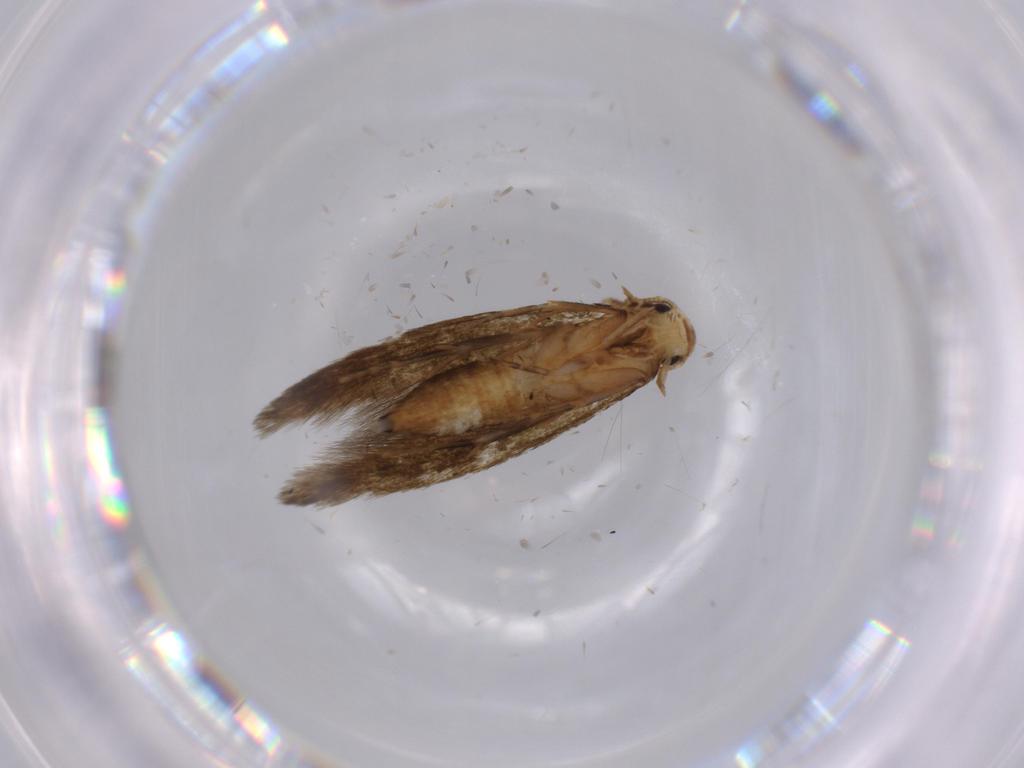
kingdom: Animalia
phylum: Arthropoda
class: Insecta
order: Lepidoptera
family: Tineidae
